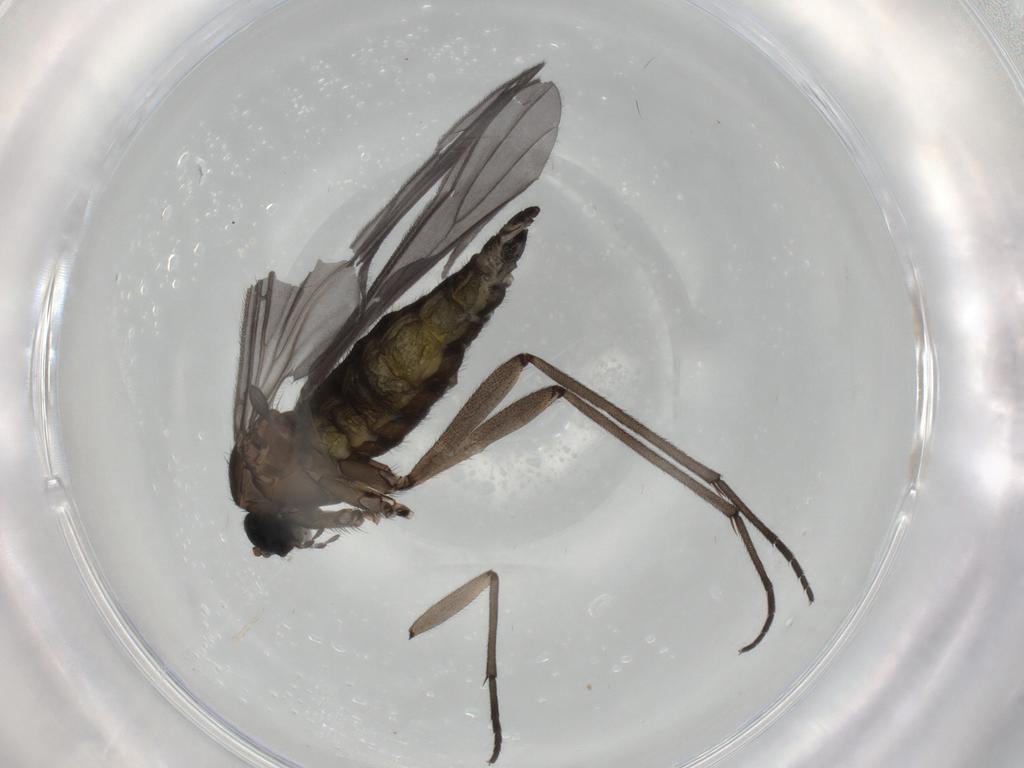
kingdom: Animalia
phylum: Arthropoda
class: Insecta
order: Diptera
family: Sciaridae
